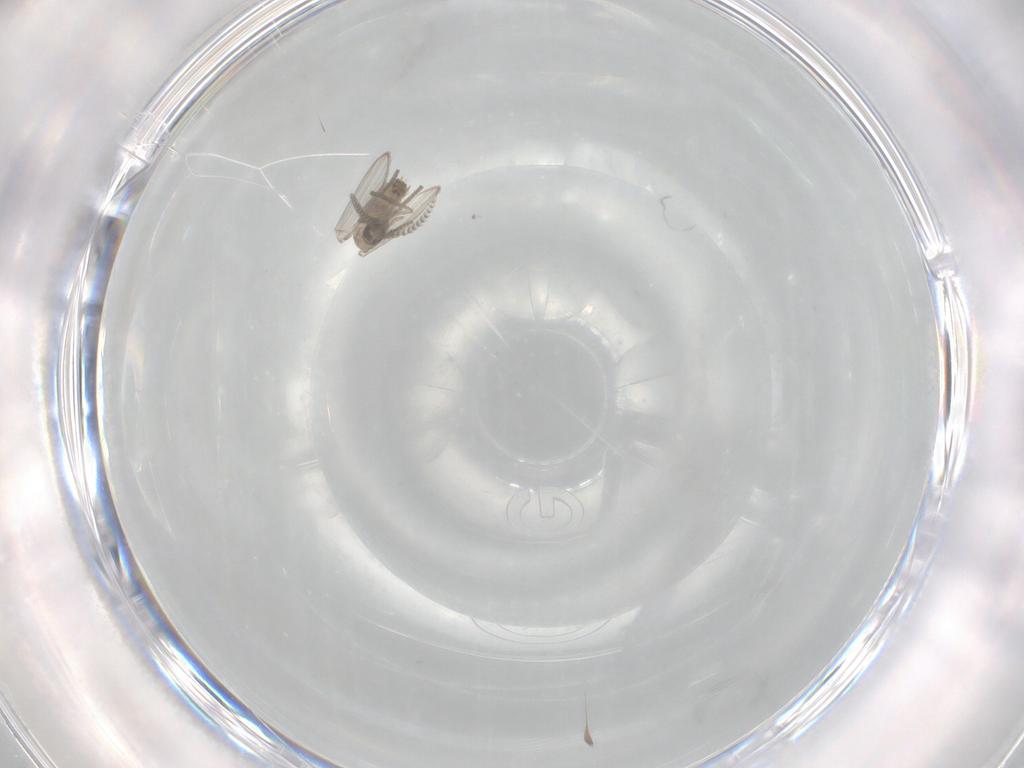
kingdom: Animalia
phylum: Arthropoda
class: Insecta
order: Diptera
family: Psychodidae
